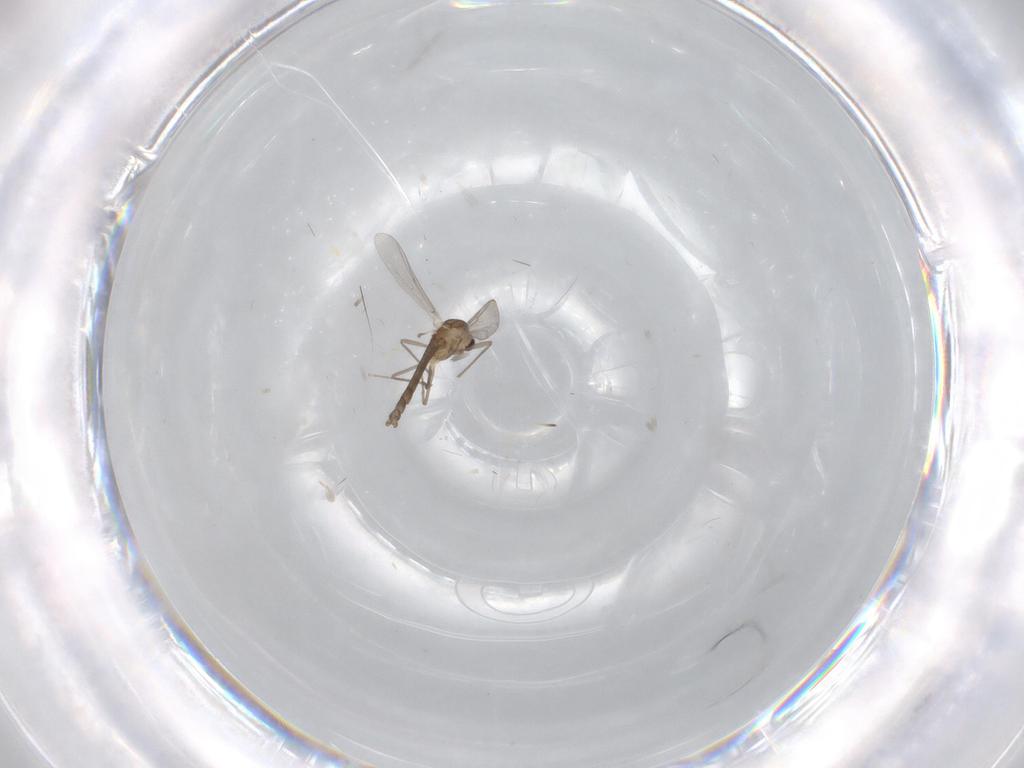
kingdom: Animalia
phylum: Arthropoda
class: Insecta
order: Diptera
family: Chironomidae
